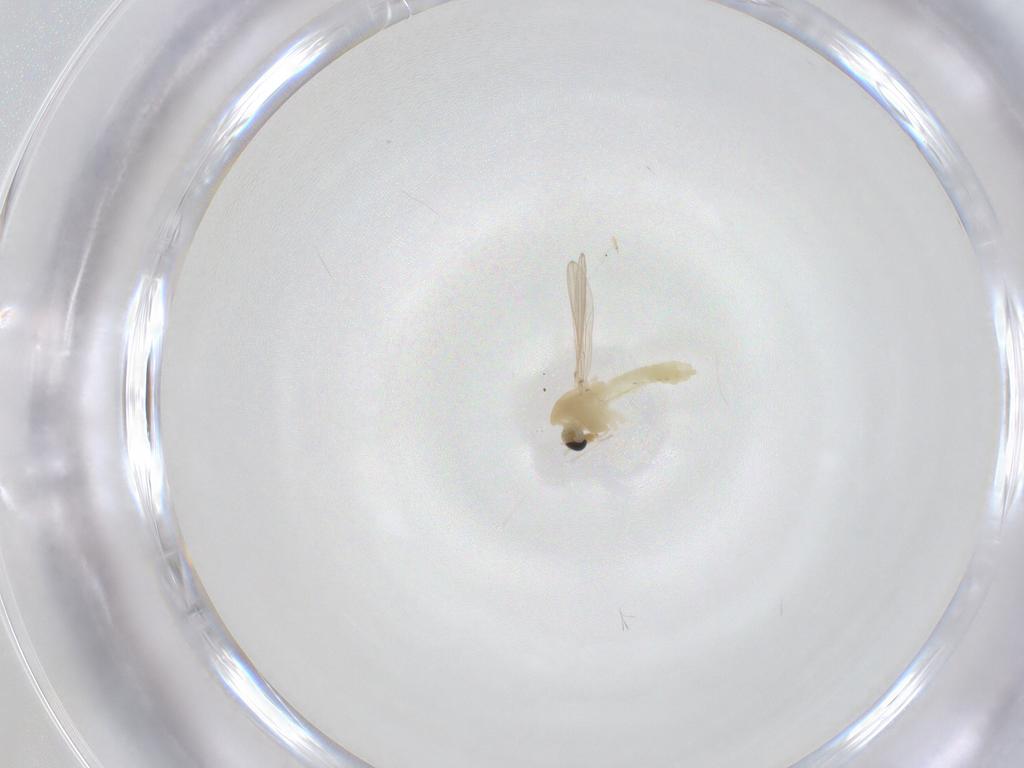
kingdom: Animalia
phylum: Arthropoda
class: Insecta
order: Diptera
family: Chironomidae
